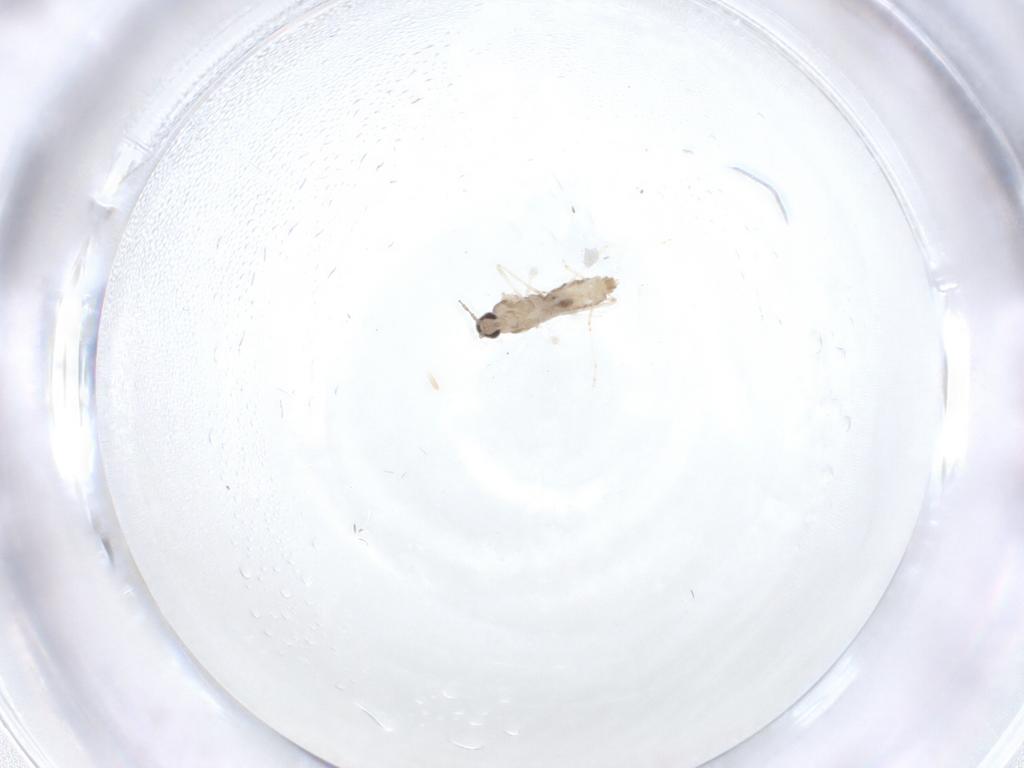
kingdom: Animalia
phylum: Arthropoda
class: Insecta
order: Diptera
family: Cecidomyiidae
